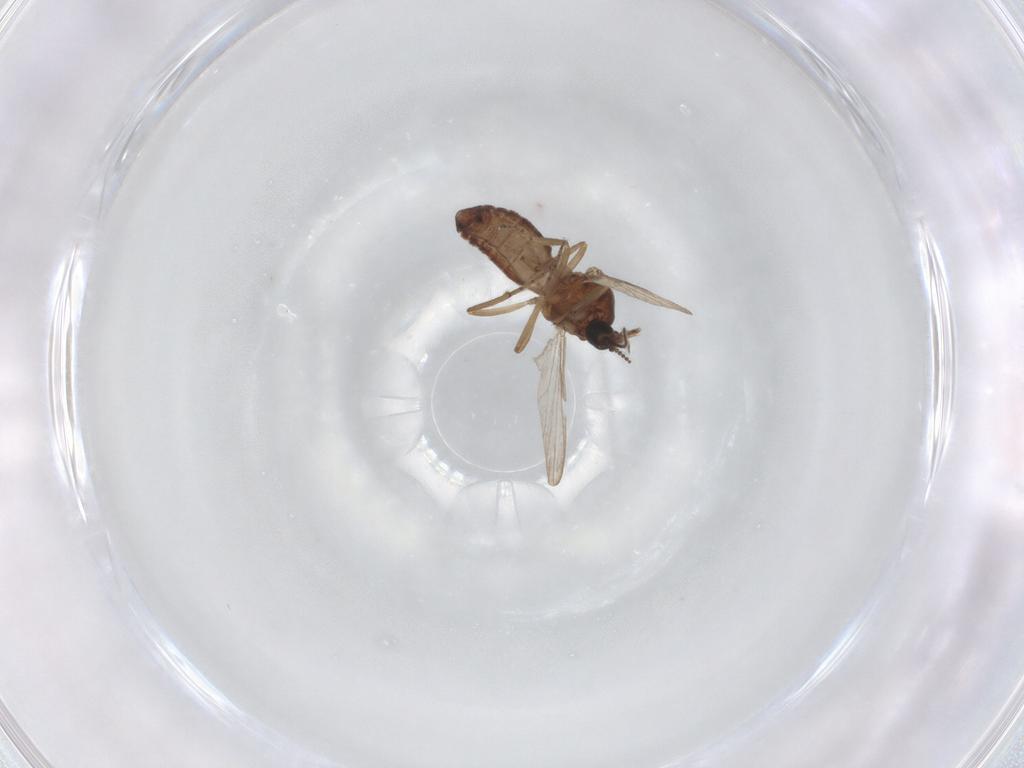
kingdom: Animalia
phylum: Arthropoda
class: Insecta
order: Diptera
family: Ceratopogonidae
